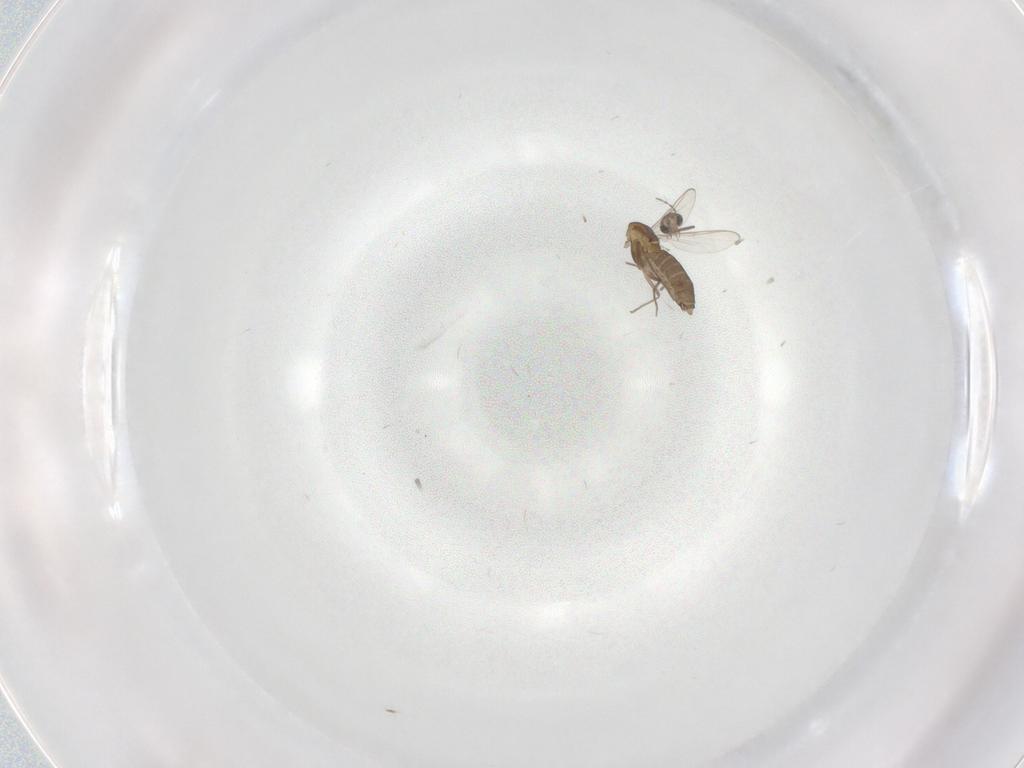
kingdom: Animalia
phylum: Arthropoda
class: Insecta
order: Diptera
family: Chironomidae
